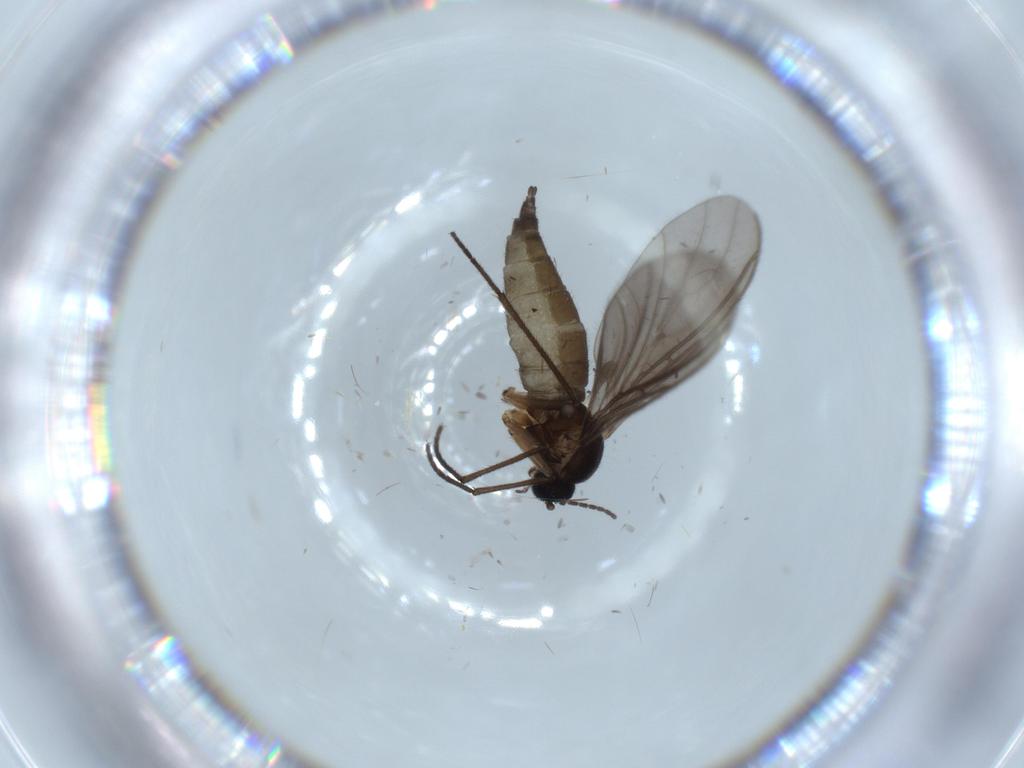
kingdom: Animalia
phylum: Arthropoda
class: Insecta
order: Diptera
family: Sciaridae
